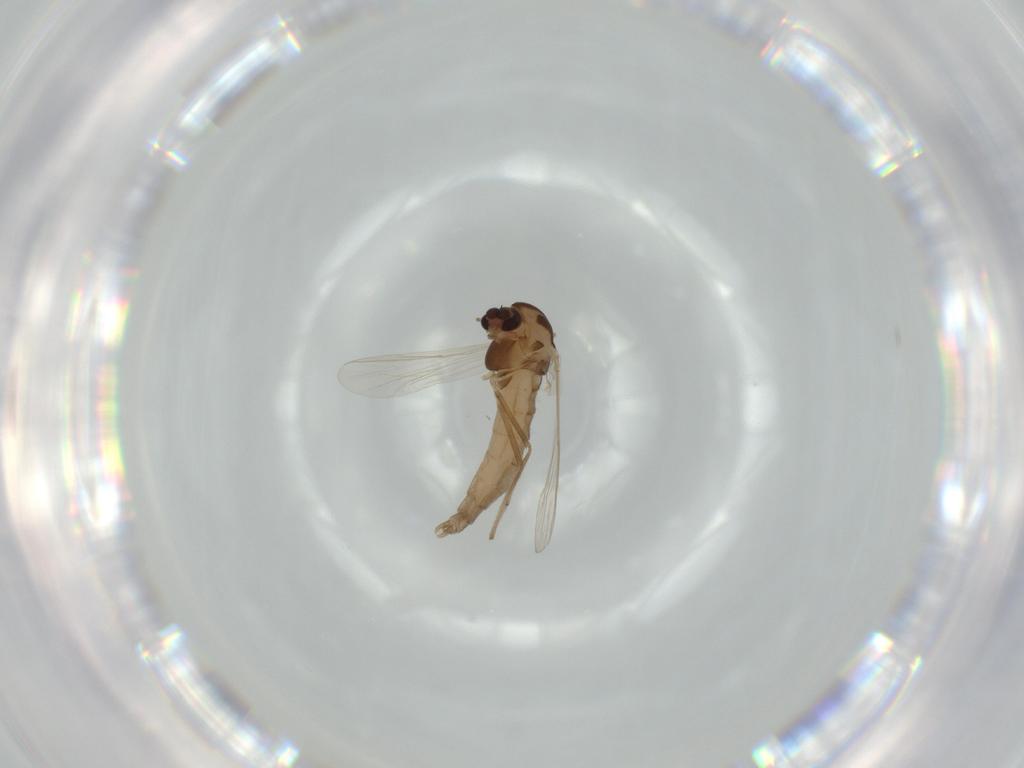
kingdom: Animalia
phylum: Arthropoda
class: Insecta
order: Diptera
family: Chironomidae
